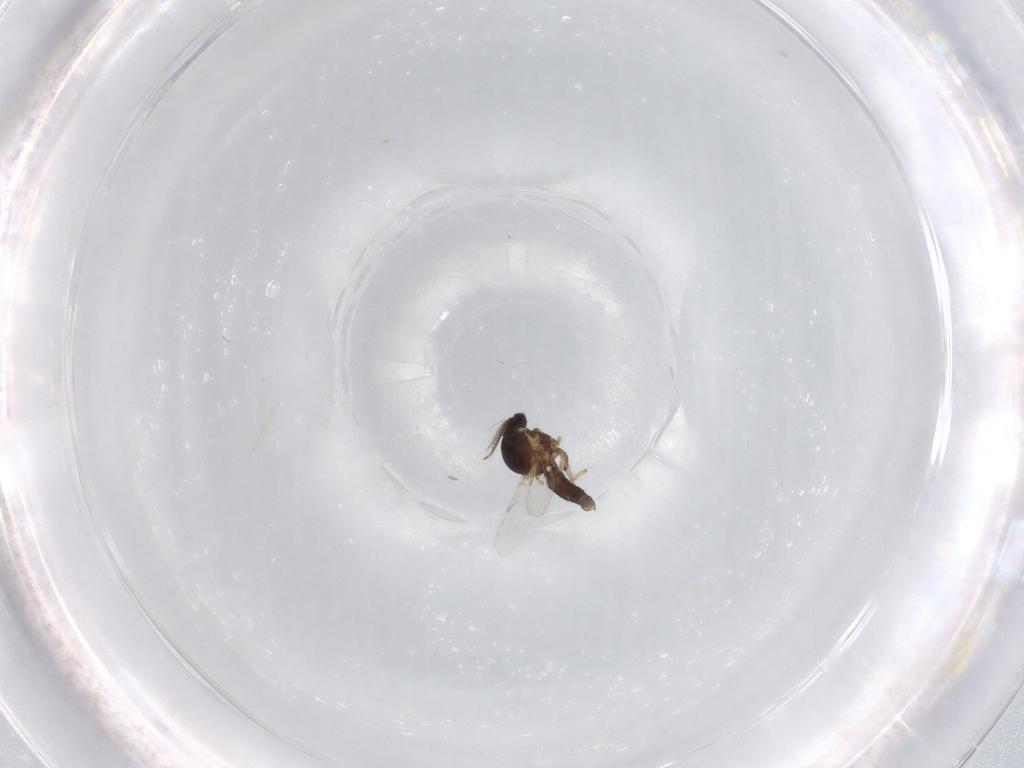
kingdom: Animalia
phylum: Arthropoda
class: Insecta
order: Diptera
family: Ceratopogonidae
